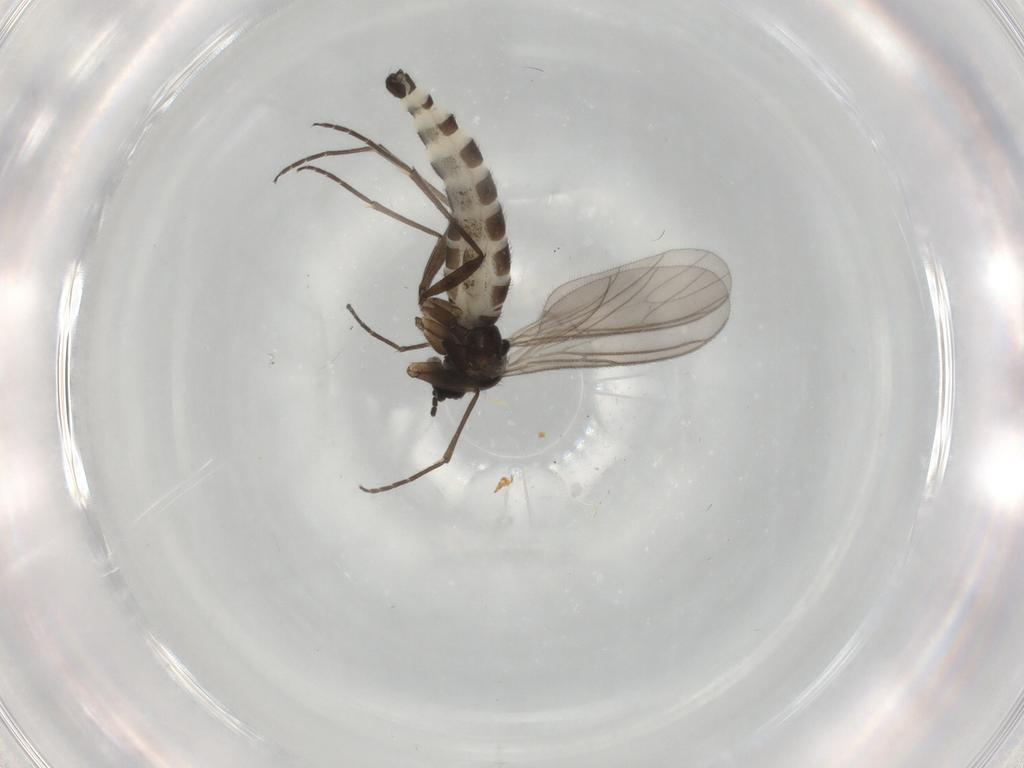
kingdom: Animalia
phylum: Arthropoda
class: Insecta
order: Diptera
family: Sciaridae
